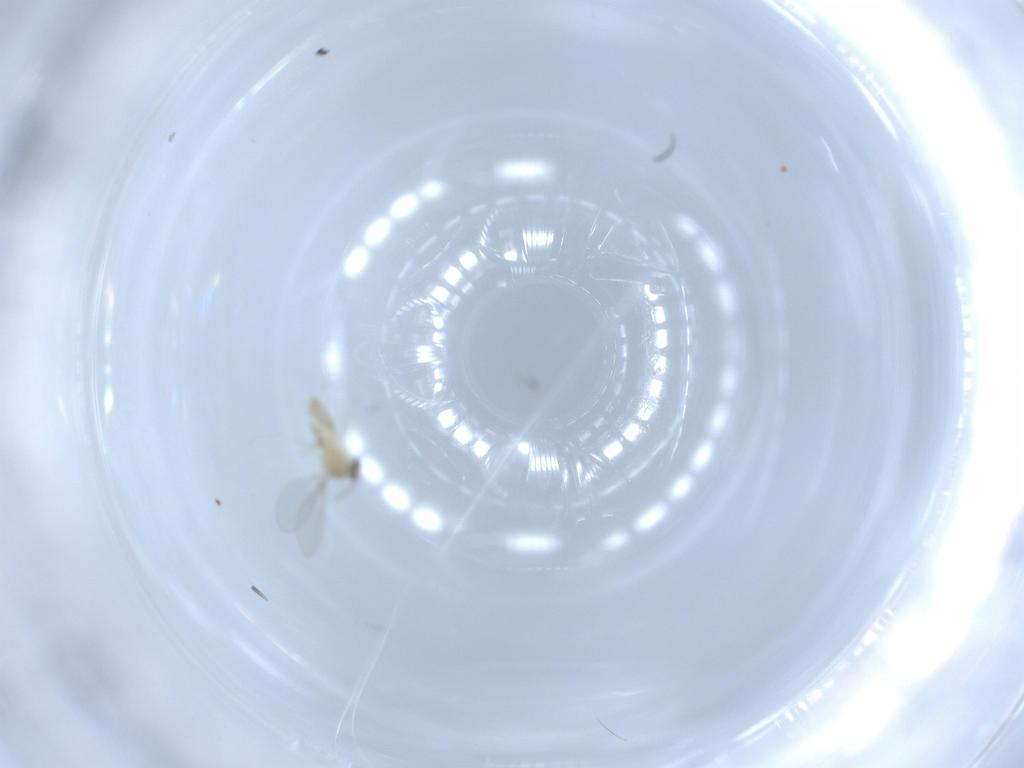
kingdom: Animalia
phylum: Arthropoda
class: Insecta
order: Diptera
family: Cecidomyiidae
